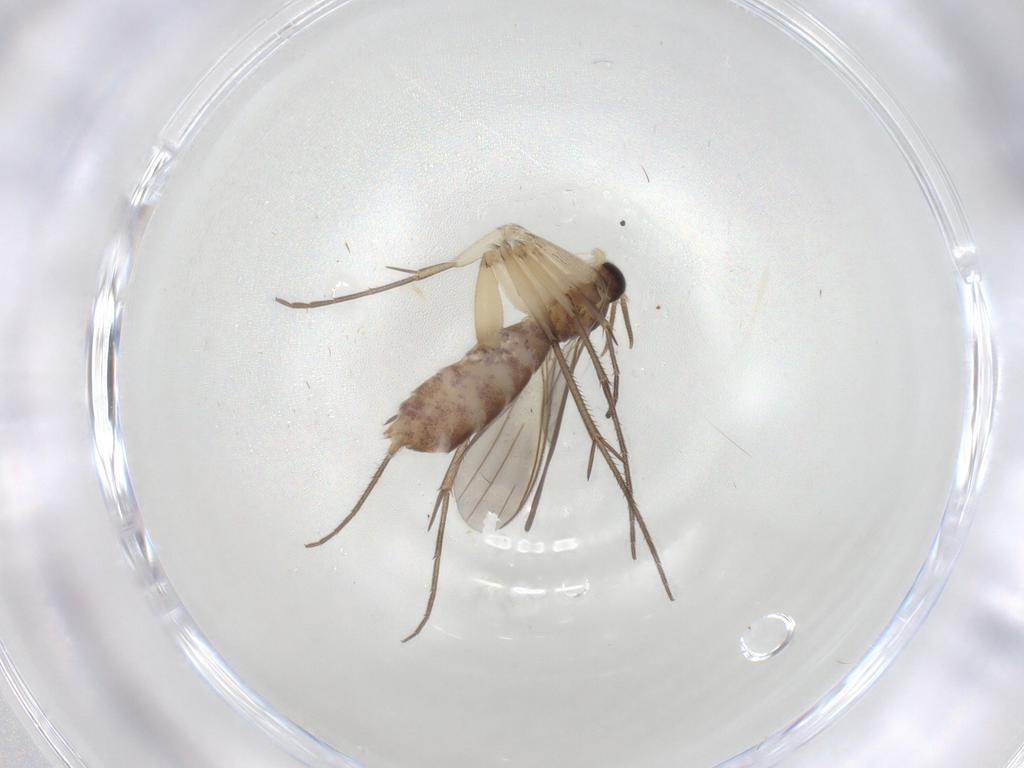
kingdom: Animalia
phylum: Arthropoda
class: Insecta
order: Diptera
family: Mycetophilidae
